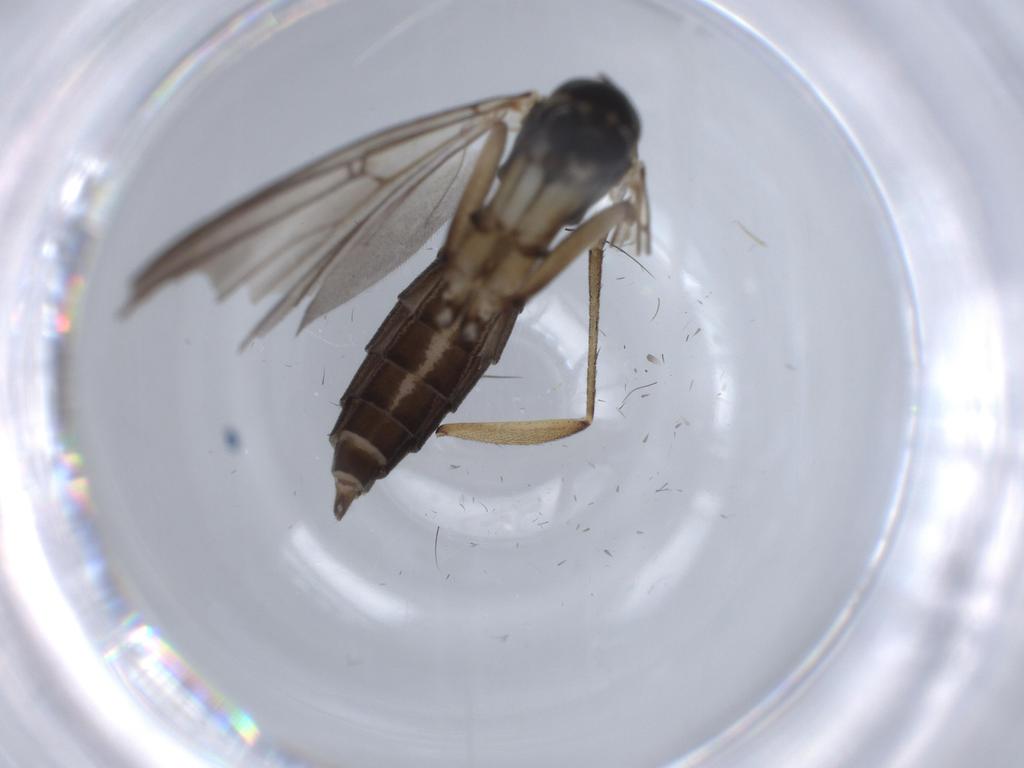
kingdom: Animalia
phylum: Arthropoda
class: Insecta
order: Diptera
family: Mycetophilidae
